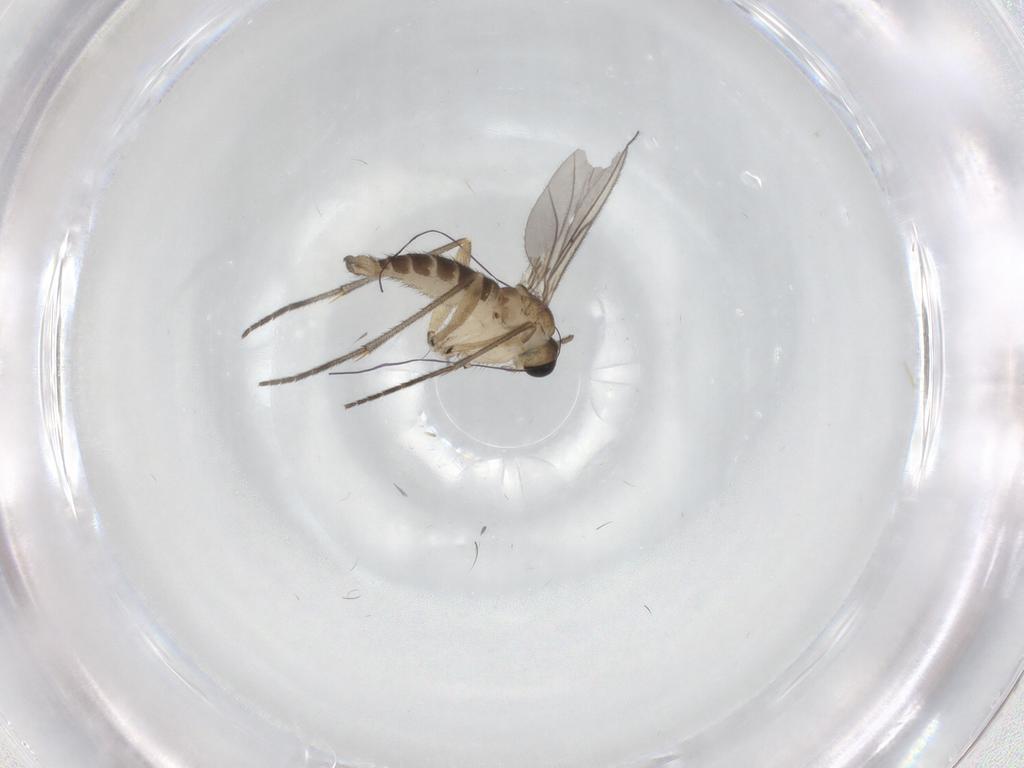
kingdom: Animalia
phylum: Arthropoda
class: Insecta
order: Diptera
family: Sciaridae
